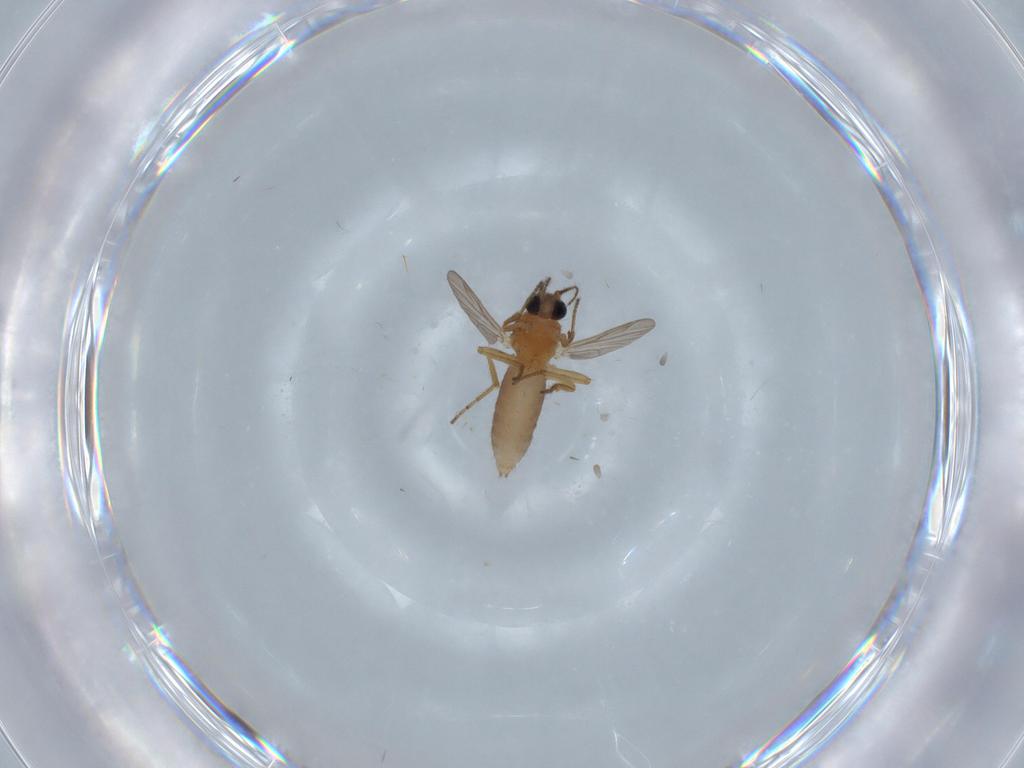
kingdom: Animalia
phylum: Arthropoda
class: Insecta
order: Diptera
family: Ceratopogonidae
